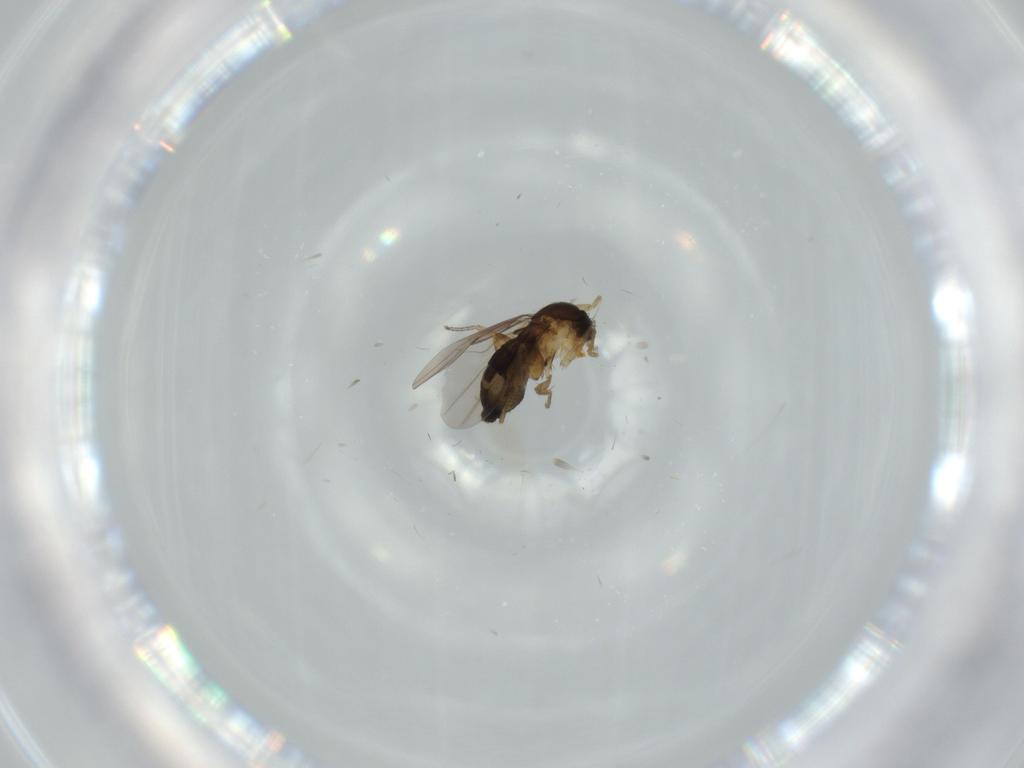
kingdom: Animalia
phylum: Arthropoda
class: Insecta
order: Diptera
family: Phoridae
